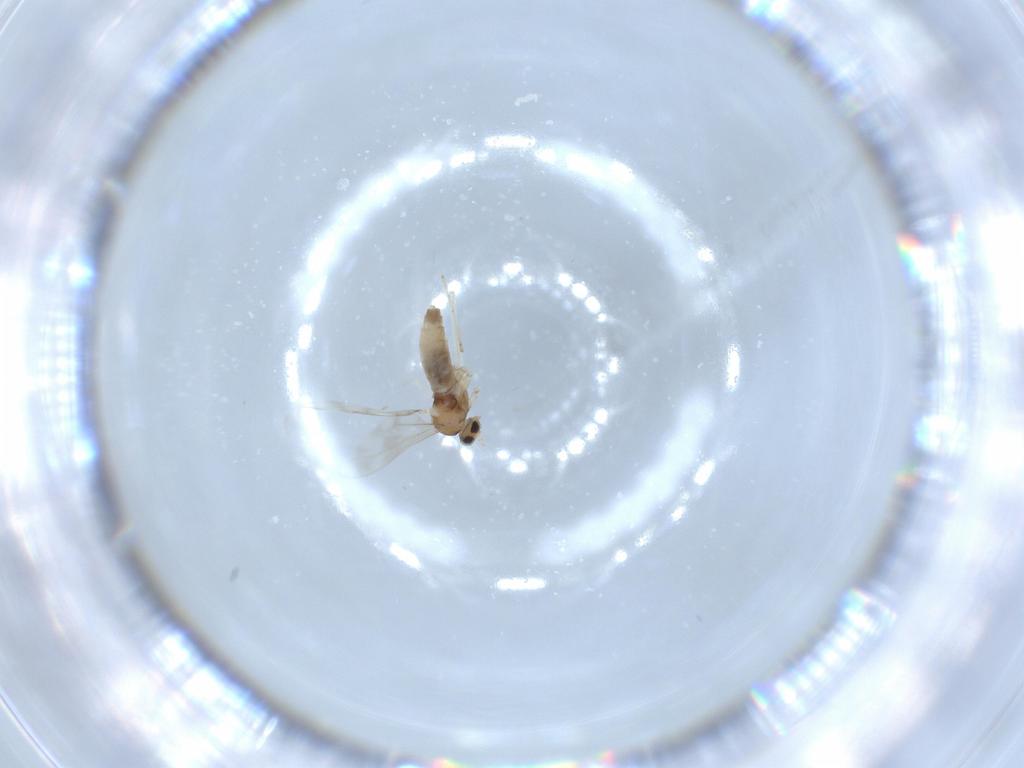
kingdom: Animalia
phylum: Arthropoda
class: Insecta
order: Diptera
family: Cecidomyiidae
